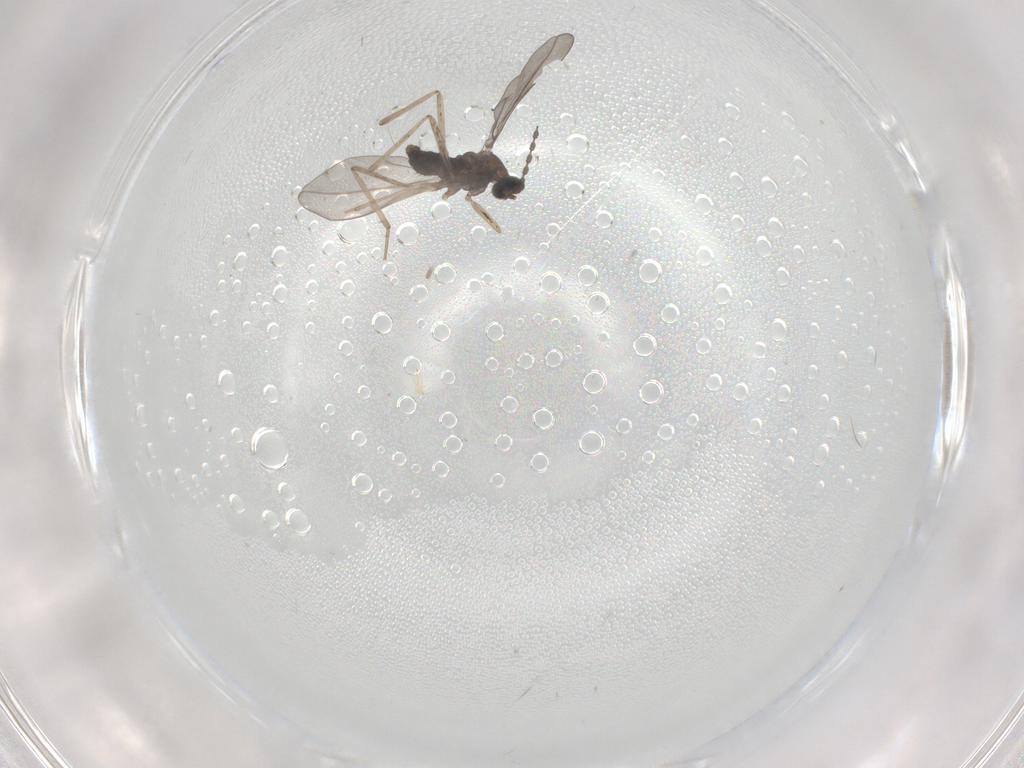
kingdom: Animalia
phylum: Arthropoda
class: Insecta
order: Diptera
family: Cecidomyiidae
